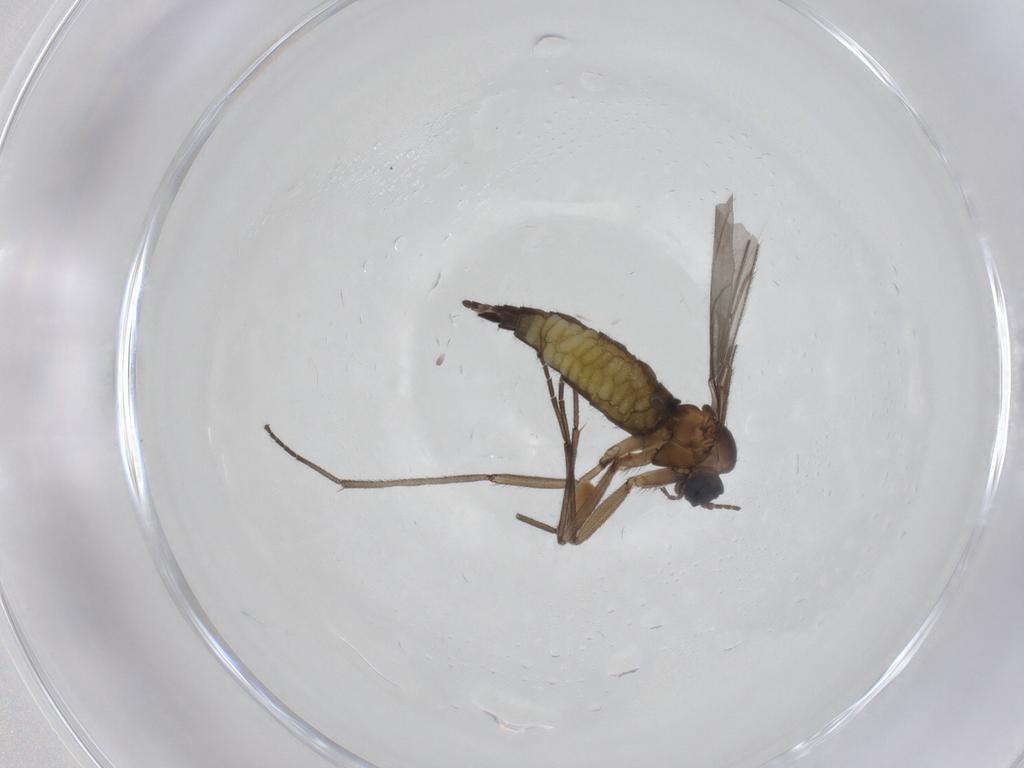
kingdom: Animalia
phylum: Arthropoda
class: Insecta
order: Diptera
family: Sciaridae
